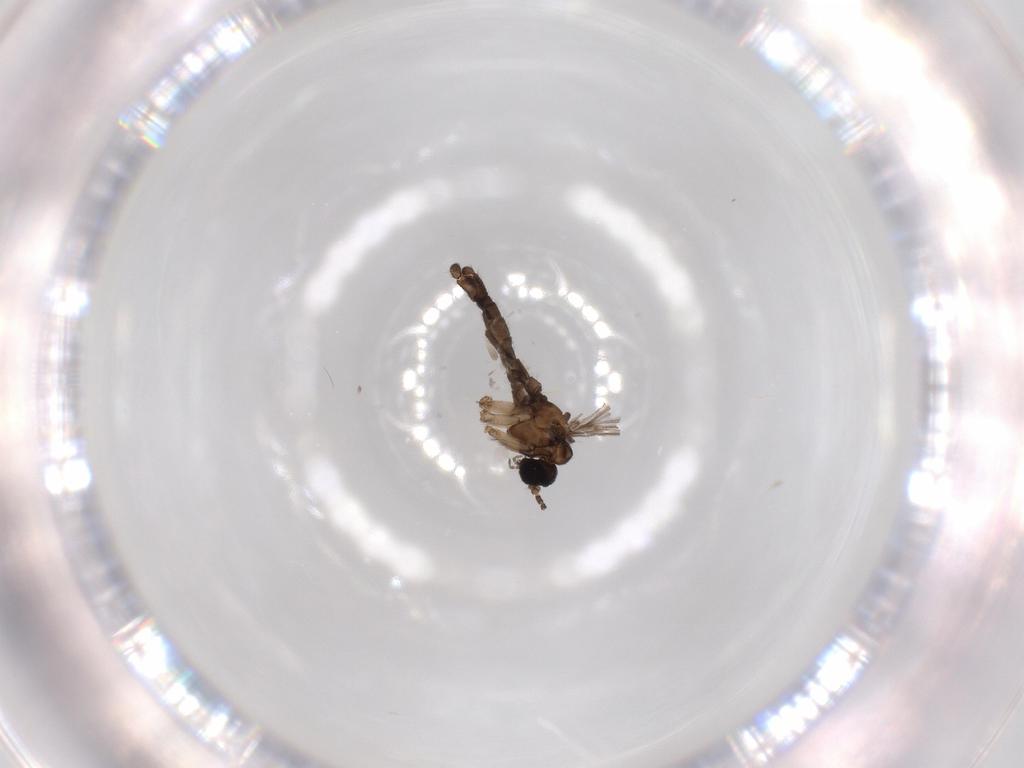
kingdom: Animalia
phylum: Arthropoda
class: Insecta
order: Diptera
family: Sciaridae
